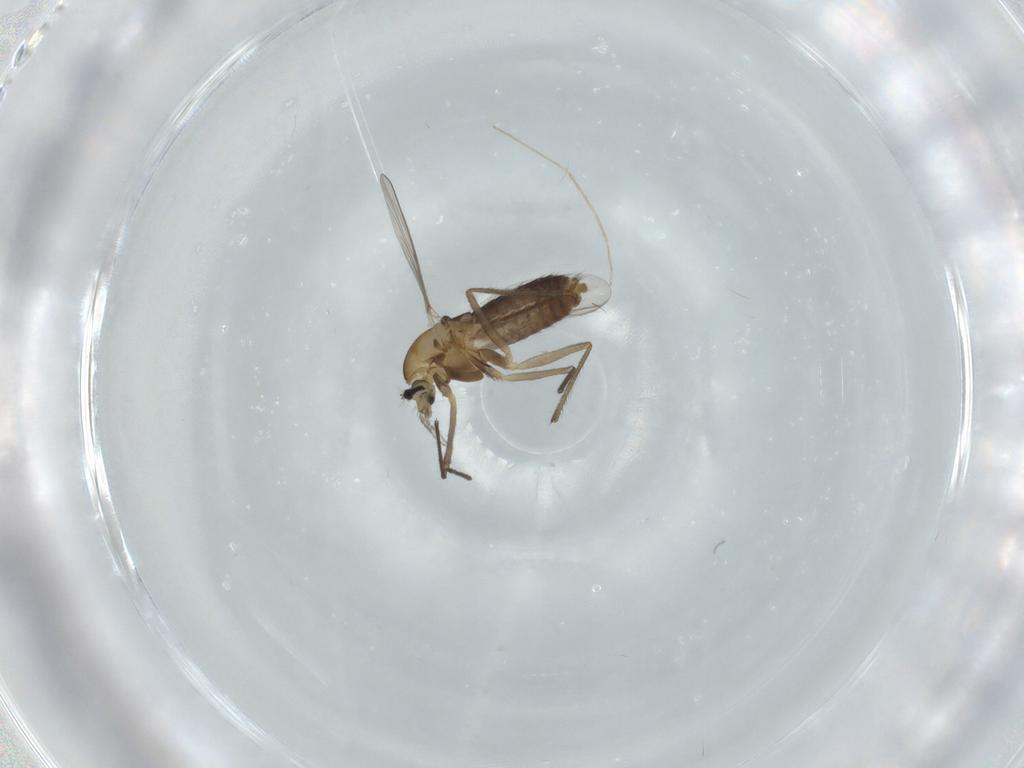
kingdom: Animalia
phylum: Arthropoda
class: Insecta
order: Diptera
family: Chironomidae
